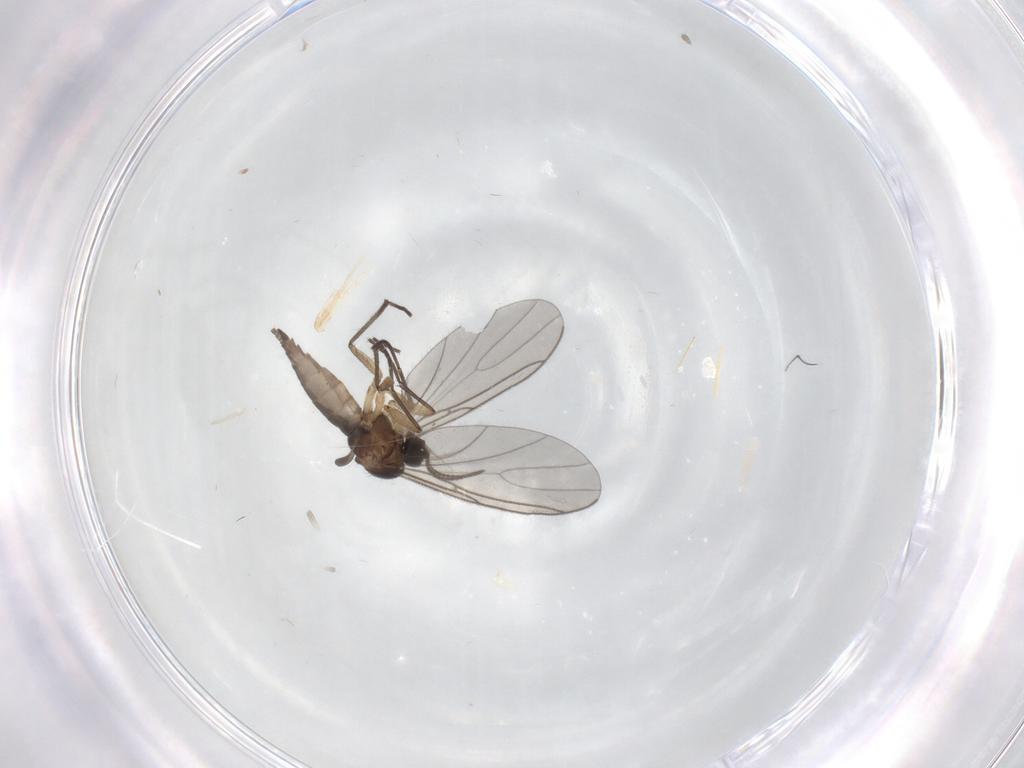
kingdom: Animalia
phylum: Arthropoda
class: Insecta
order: Diptera
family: Sciaridae
